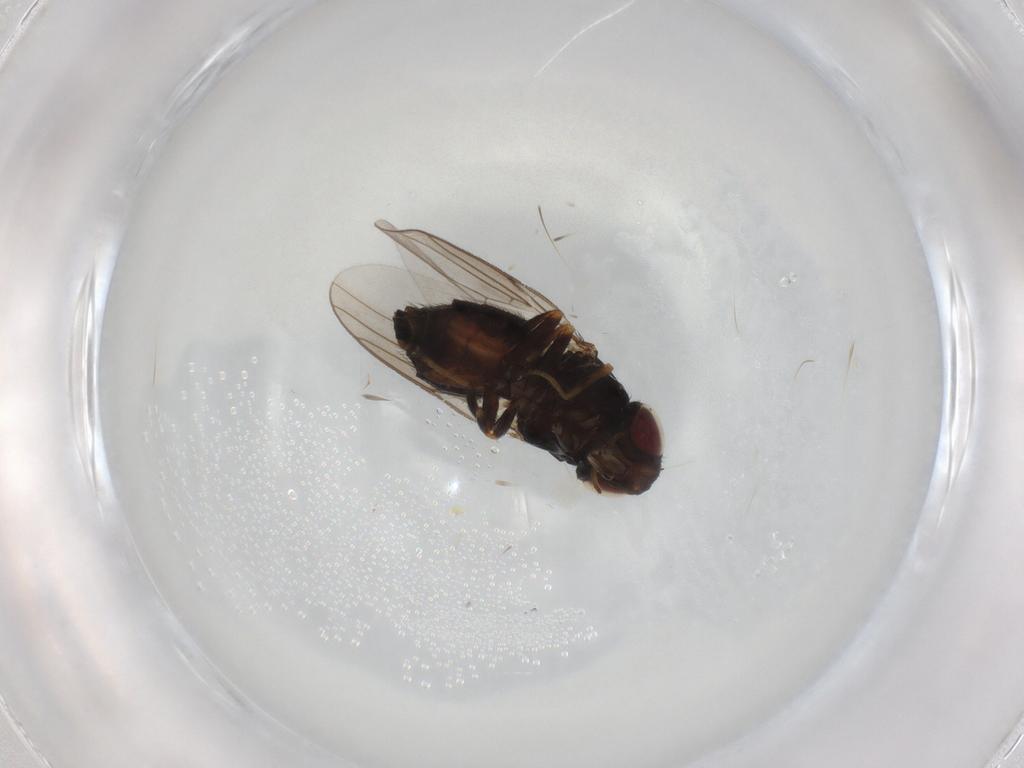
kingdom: Animalia
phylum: Arthropoda
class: Insecta
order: Diptera
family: Chloropidae
